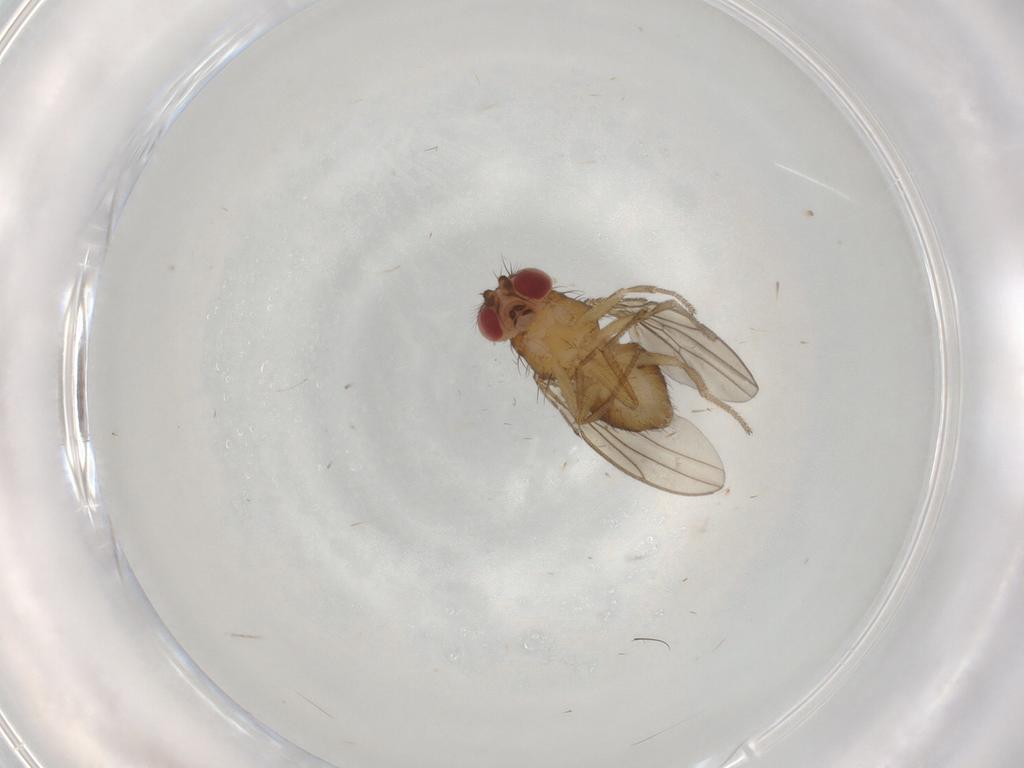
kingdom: Animalia
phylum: Arthropoda
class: Insecta
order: Diptera
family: Drosophilidae
